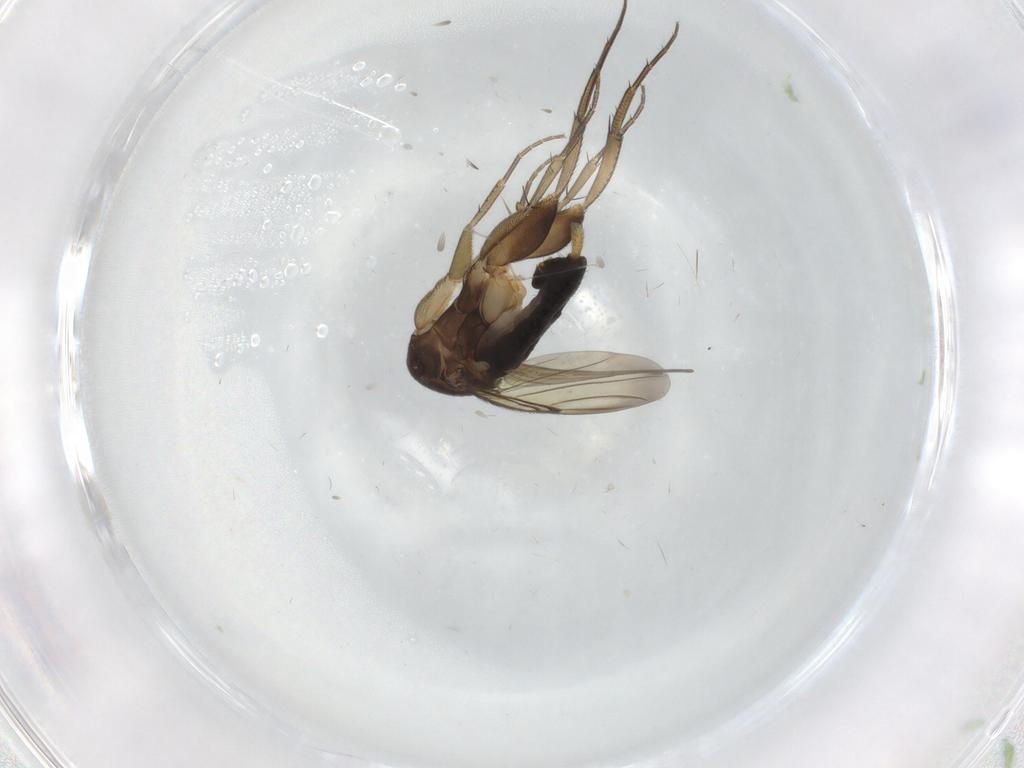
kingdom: Animalia
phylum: Arthropoda
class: Insecta
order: Diptera
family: Phoridae
